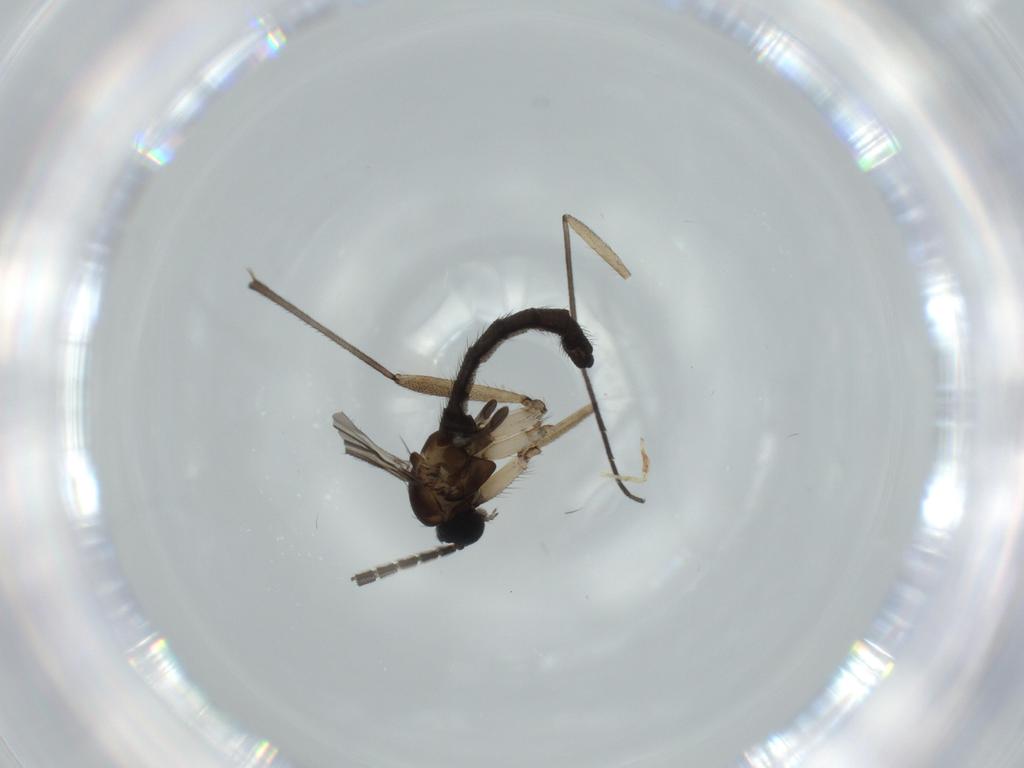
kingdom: Animalia
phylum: Arthropoda
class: Insecta
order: Diptera
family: Sciaridae
